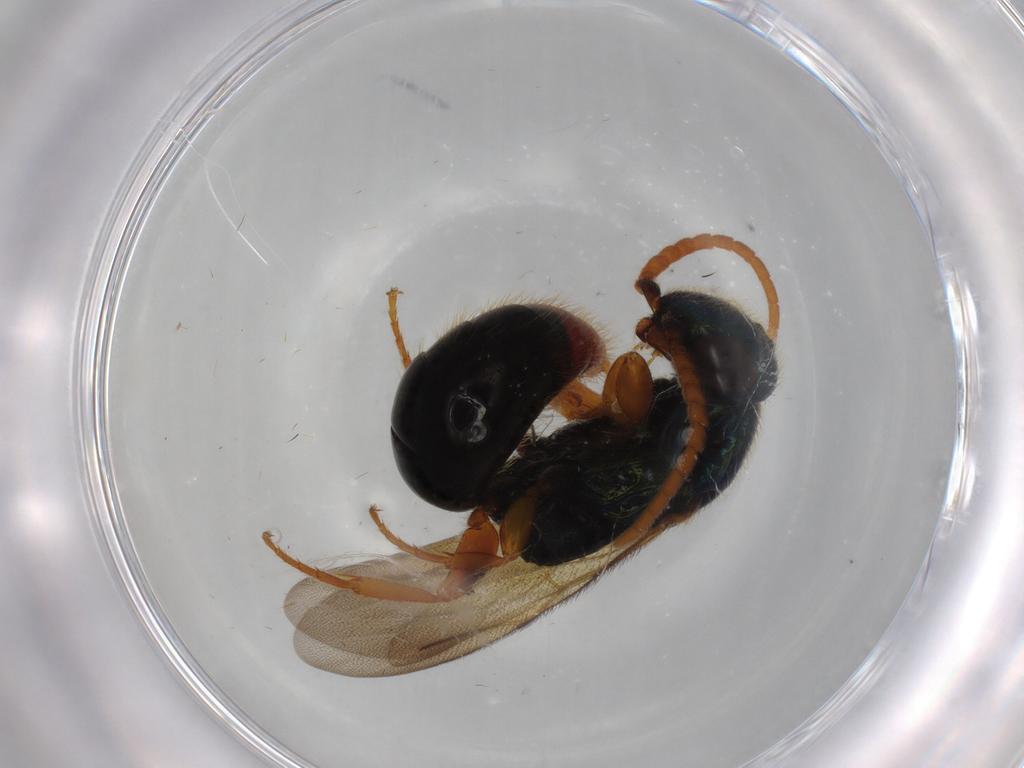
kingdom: Animalia
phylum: Arthropoda
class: Insecta
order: Hymenoptera
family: Bethylidae
